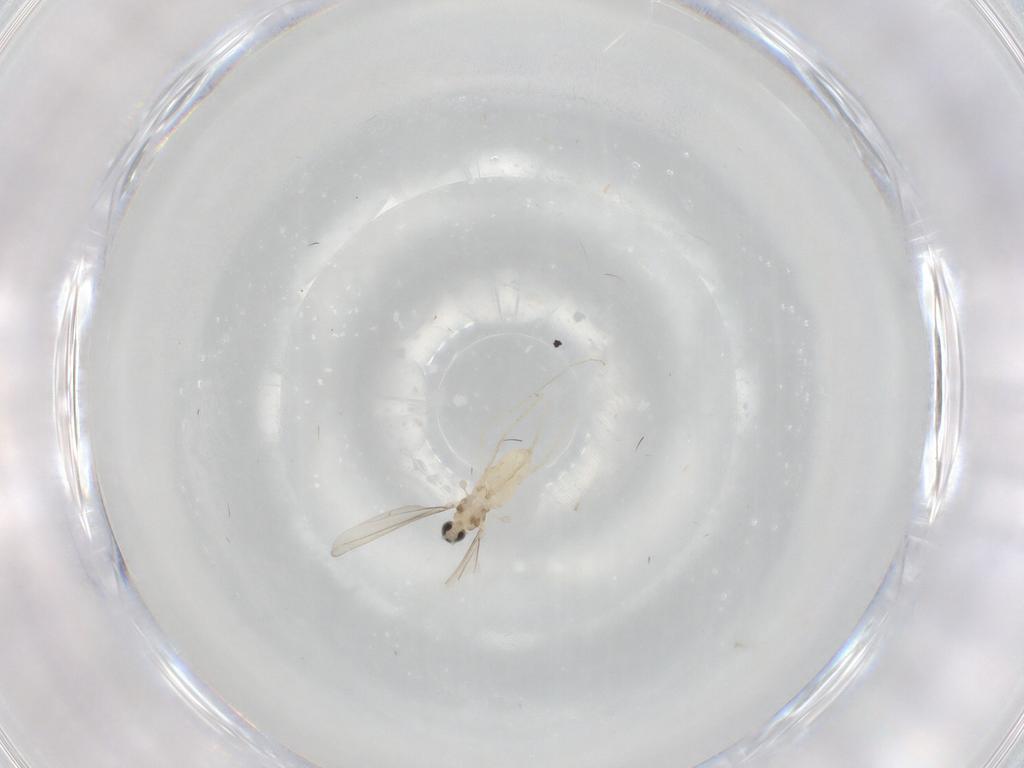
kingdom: Animalia
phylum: Arthropoda
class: Insecta
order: Diptera
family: Cecidomyiidae
